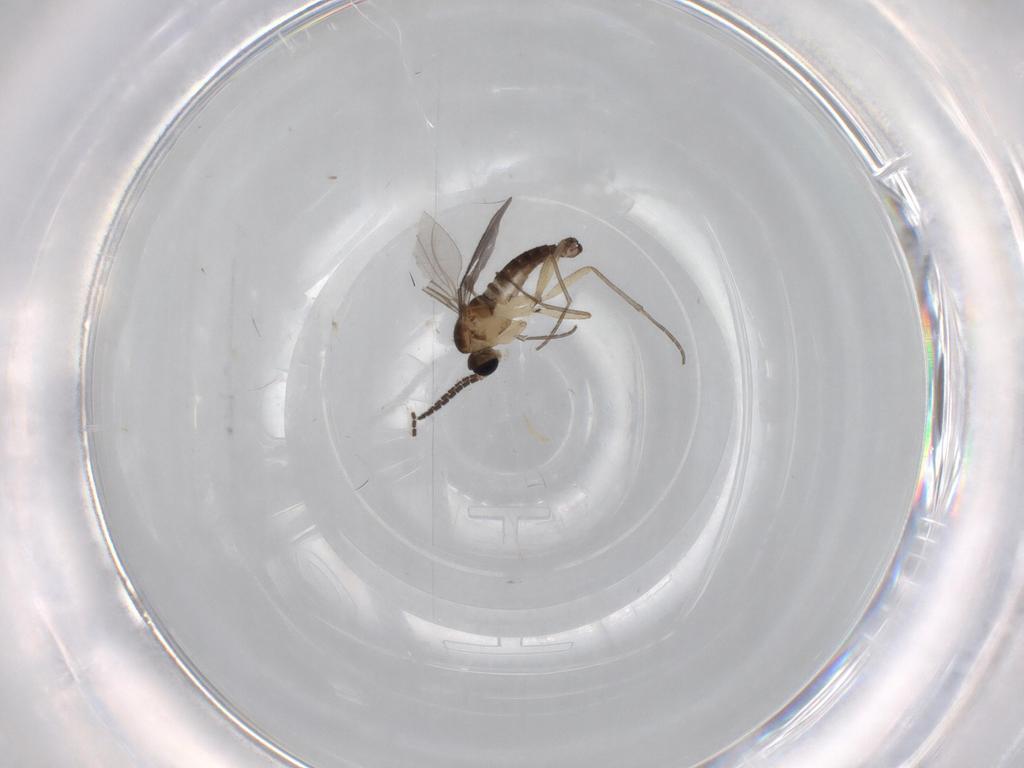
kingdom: Animalia
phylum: Arthropoda
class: Insecta
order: Diptera
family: Sciaridae
